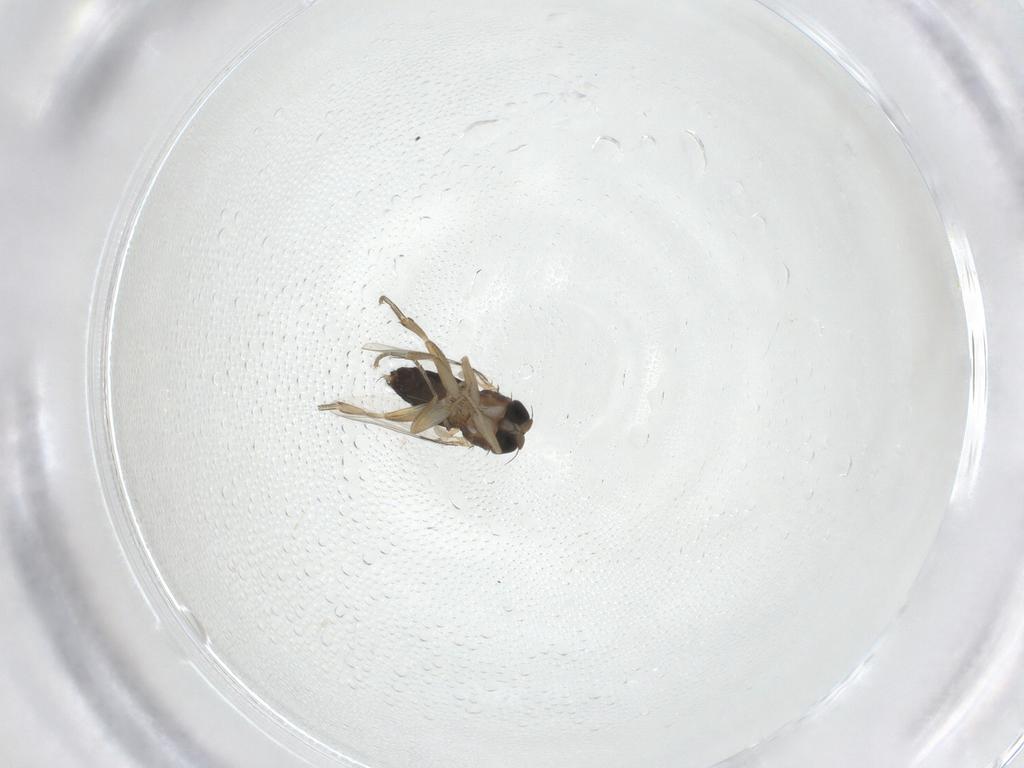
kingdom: Animalia
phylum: Arthropoda
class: Insecta
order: Diptera
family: Phoridae
